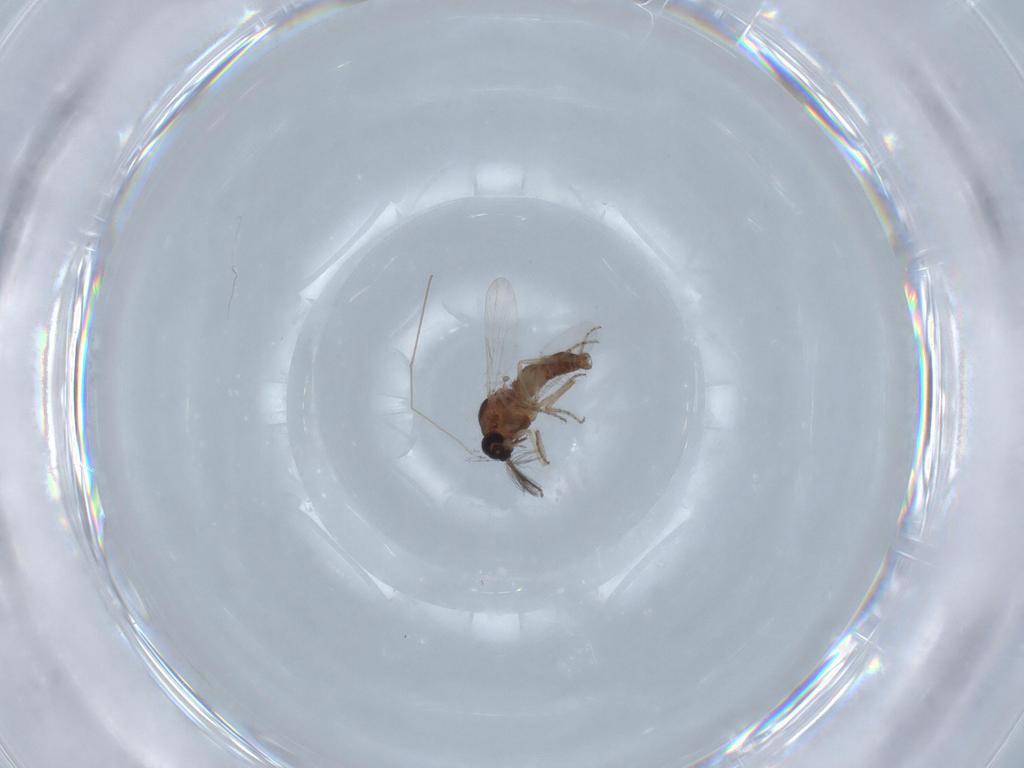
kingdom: Animalia
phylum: Arthropoda
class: Insecta
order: Diptera
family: Ceratopogonidae
